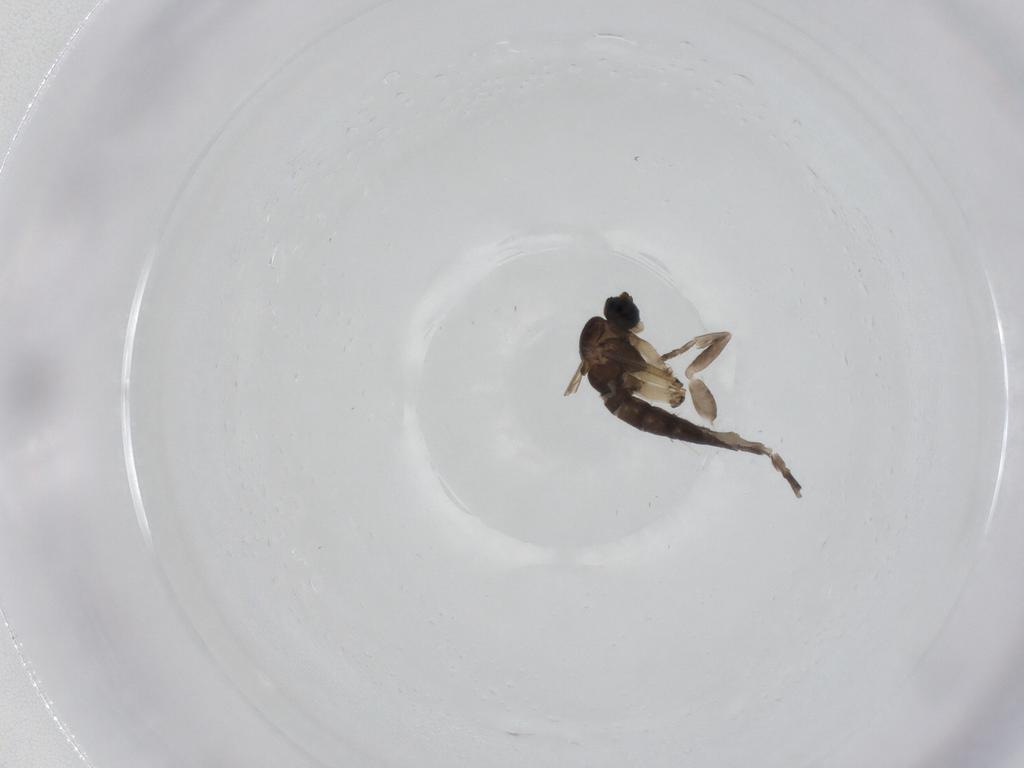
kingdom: Animalia
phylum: Arthropoda
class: Insecta
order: Diptera
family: Sciaridae
